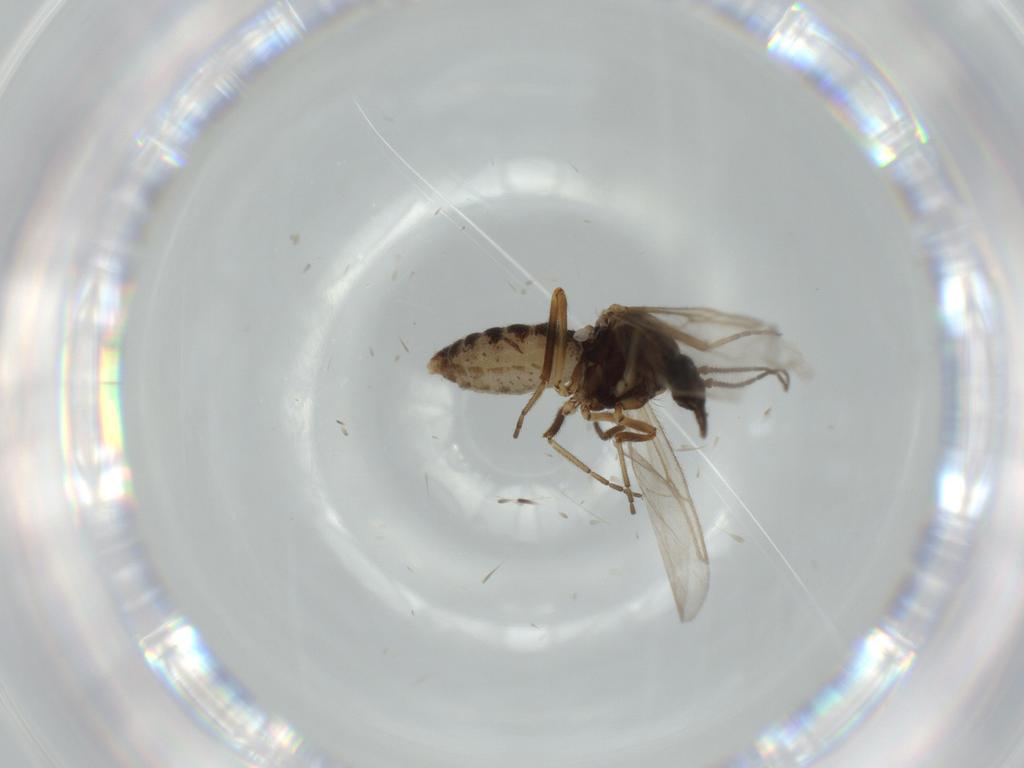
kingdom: Animalia
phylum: Arthropoda
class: Insecta
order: Diptera
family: Ceratopogonidae
